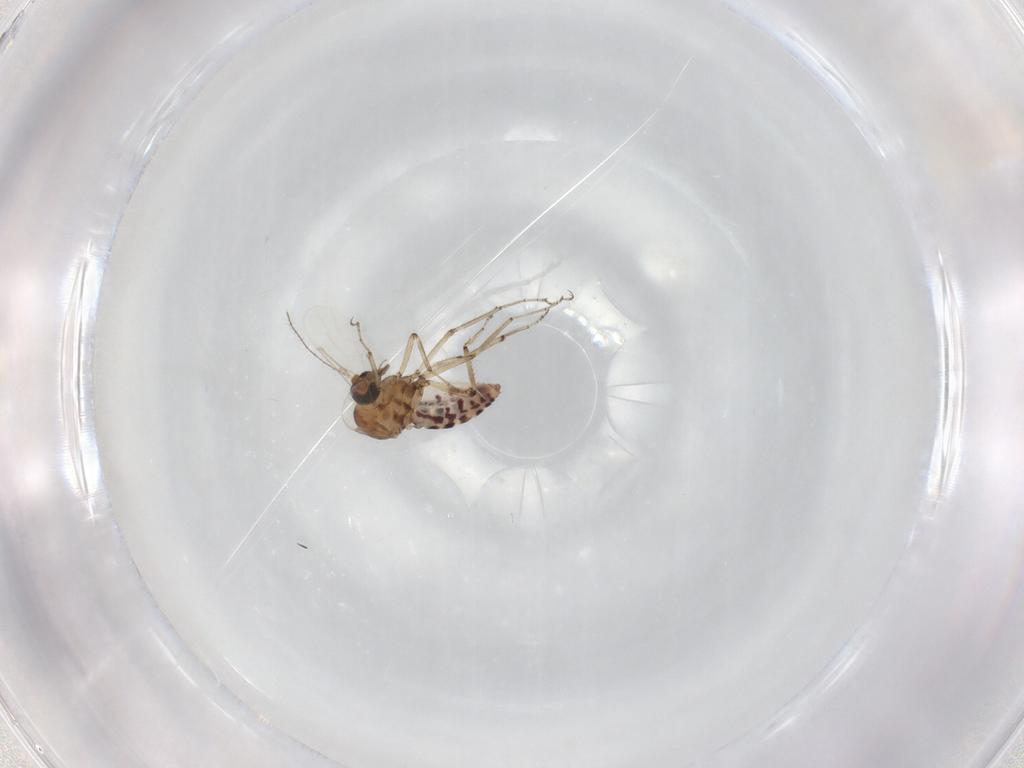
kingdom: Animalia
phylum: Arthropoda
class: Insecta
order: Diptera
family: Ceratopogonidae
